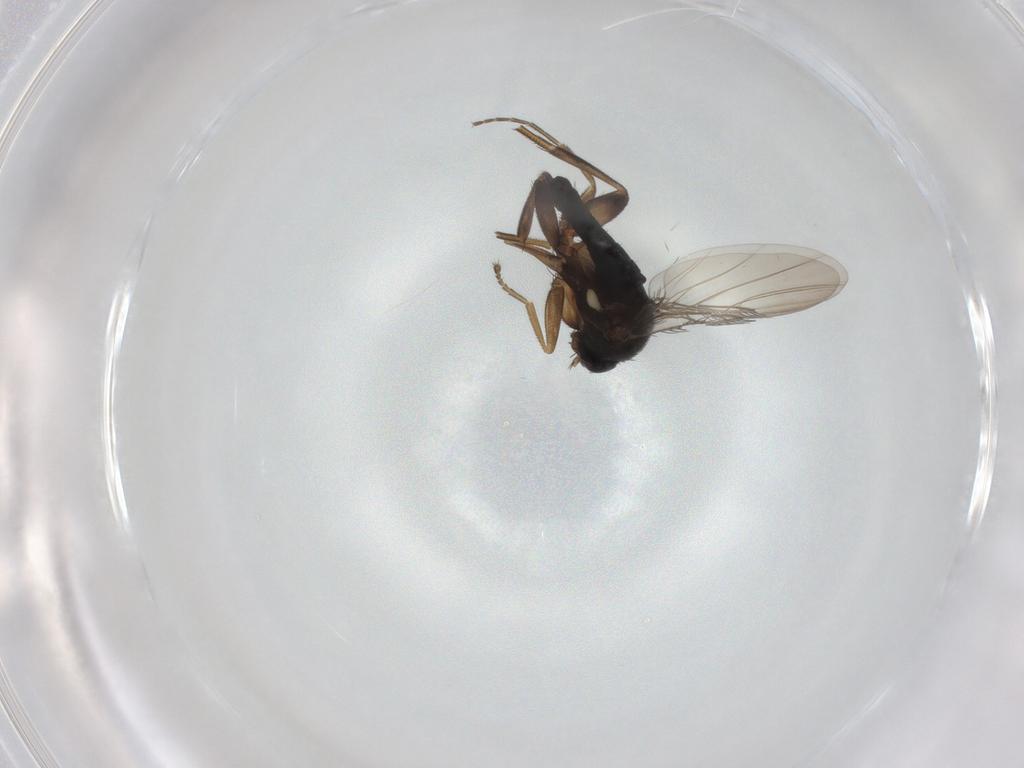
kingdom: Animalia
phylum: Arthropoda
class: Insecta
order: Diptera
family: Phoridae
